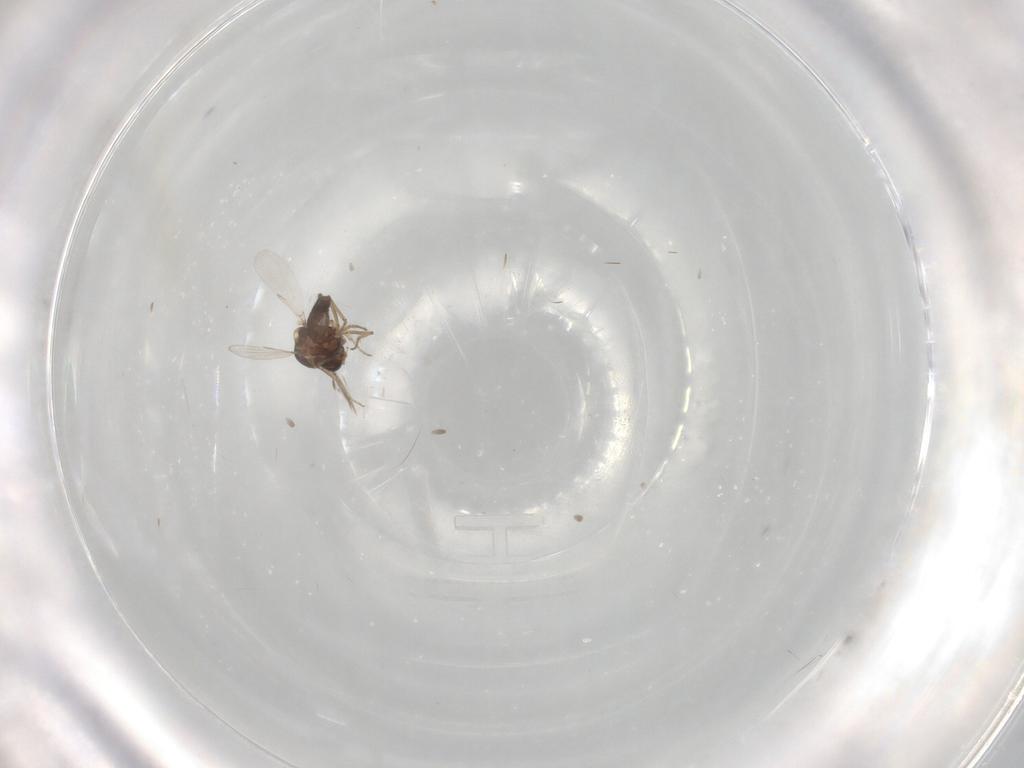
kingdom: Animalia
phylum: Arthropoda
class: Insecta
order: Diptera
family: Ceratopogonidae
